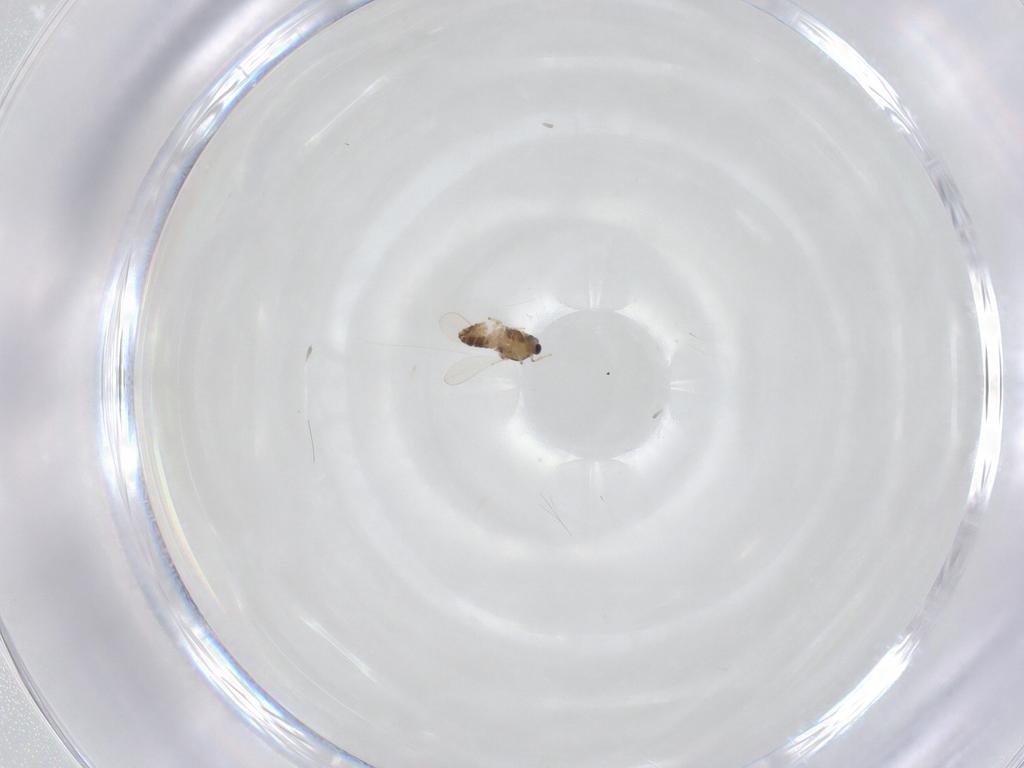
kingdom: Animalia
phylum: Arthropoda
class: Insecta
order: Diptera
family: Chironomidae
